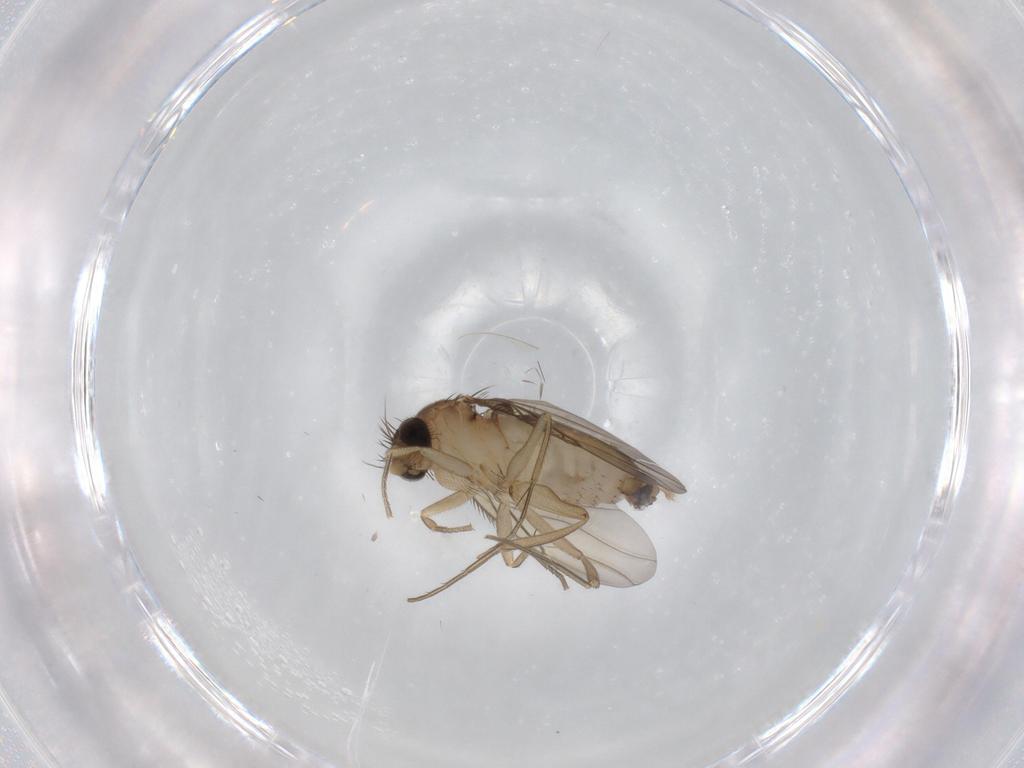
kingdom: Animalia
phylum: Arthropoda
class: Insecta
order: Diptera
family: Phoridae
